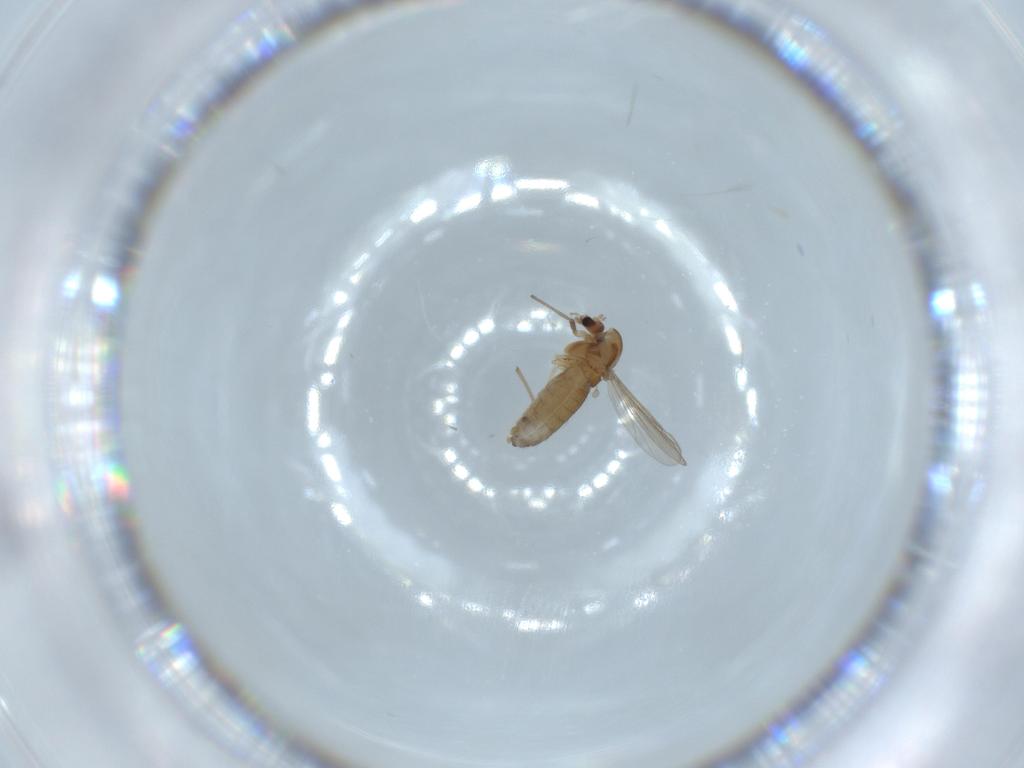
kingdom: Animalia
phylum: Arthropoda
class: Insecta
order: Diptera
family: Chironomidae
